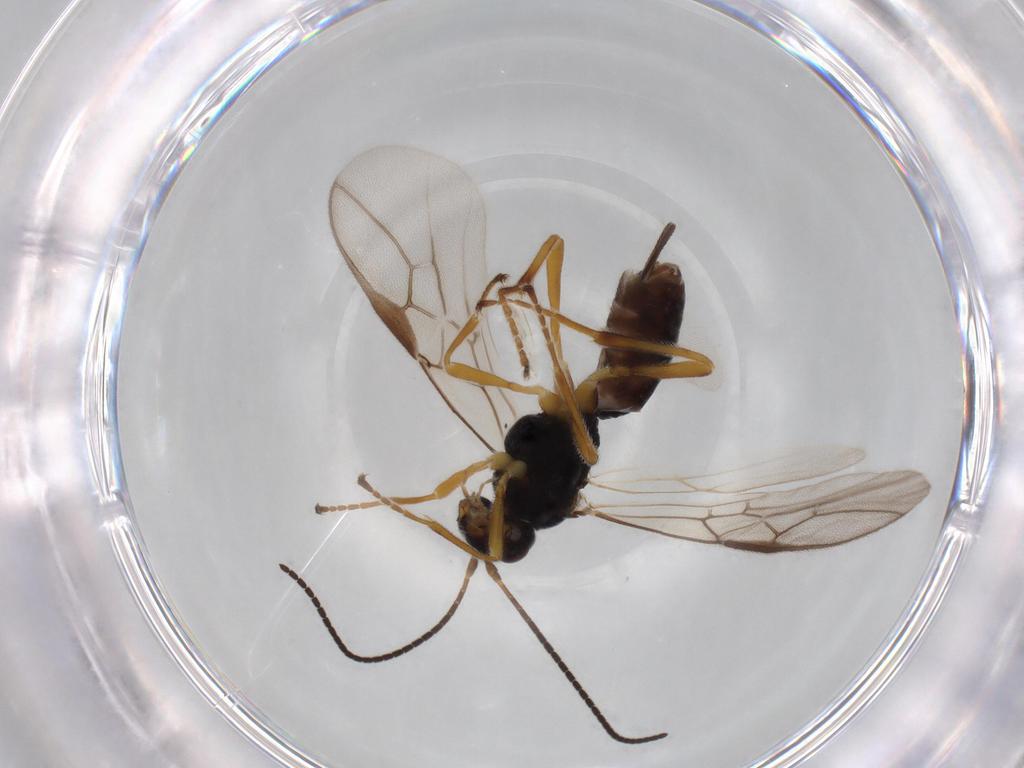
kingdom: Animalia
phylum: Arthropoda
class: Insecta
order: Hymenoptera
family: Braconidae
